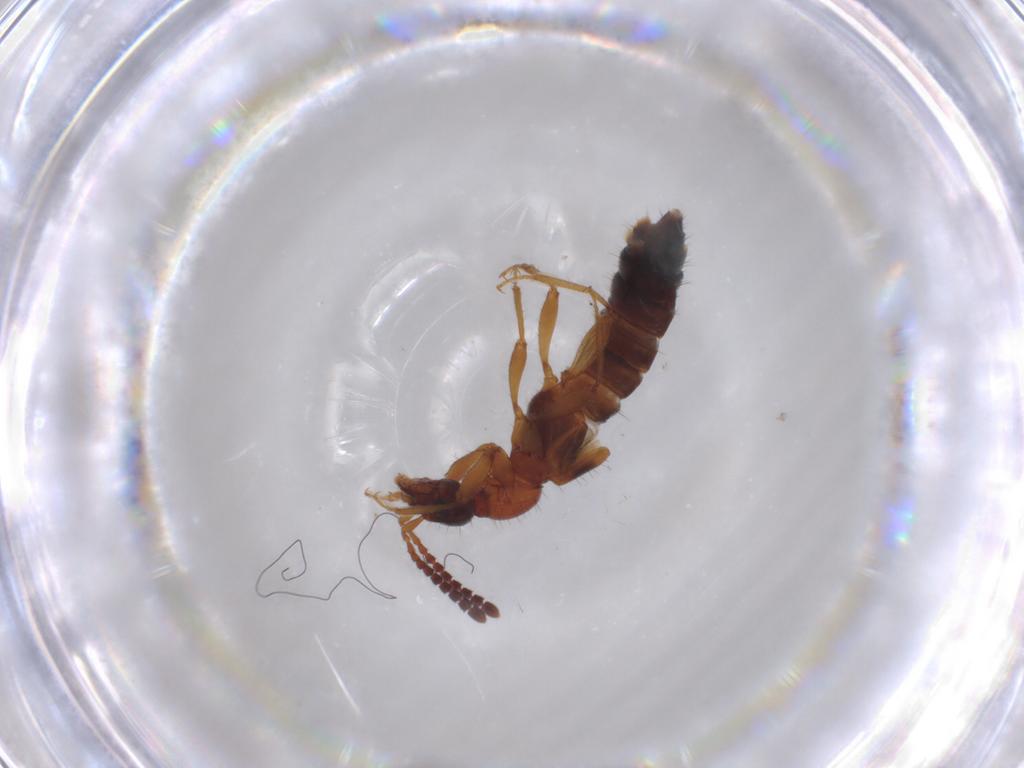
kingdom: Animalia
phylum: Arthropoda
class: Insecta
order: Coleoptera
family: Staphylinidae
